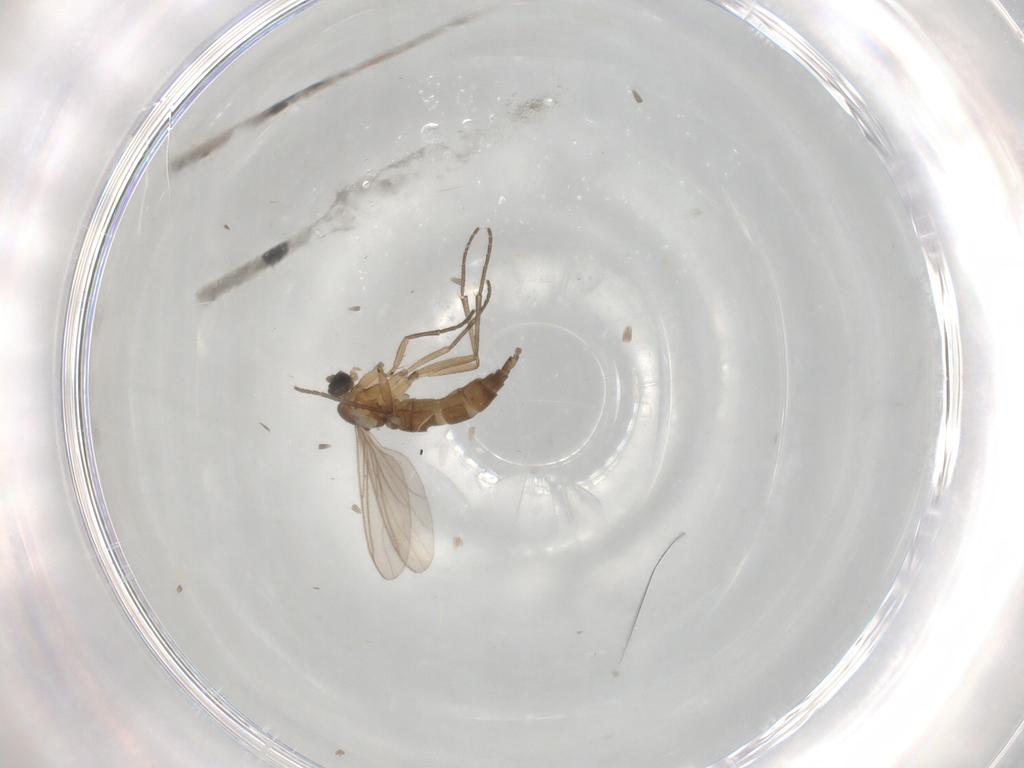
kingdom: Animalia
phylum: Arthropoda
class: Insecta
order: Diptera
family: Sciaridae
